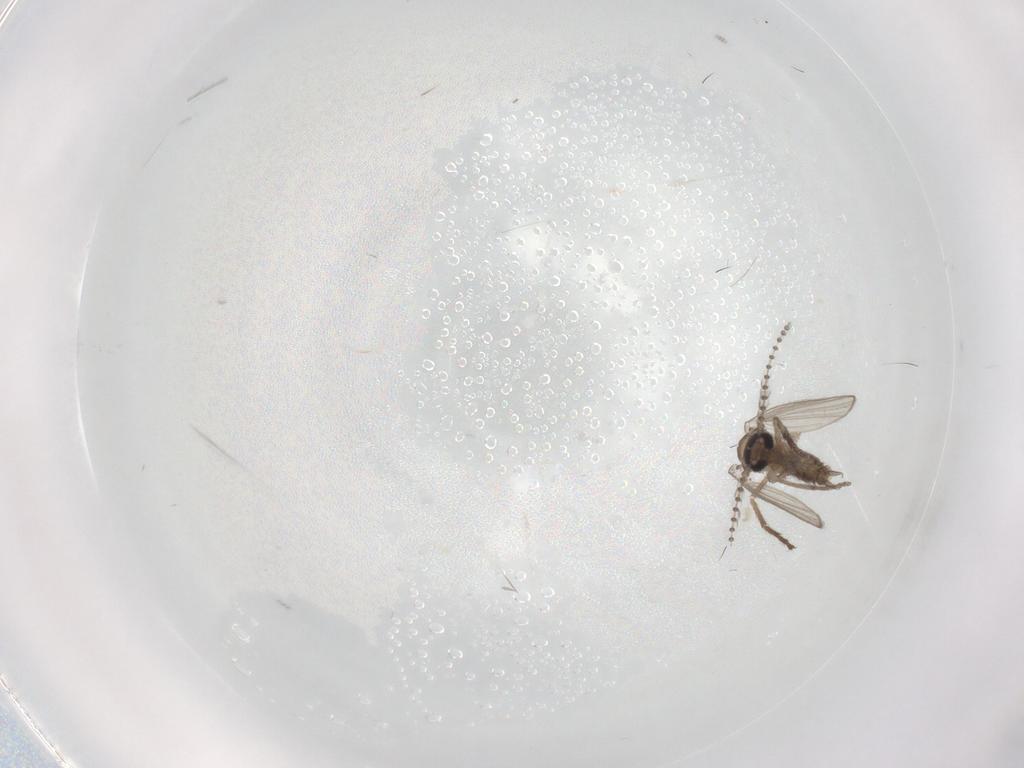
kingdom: Animalia
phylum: Arthropoda
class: Insecta
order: Diptera
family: Psychodidae
